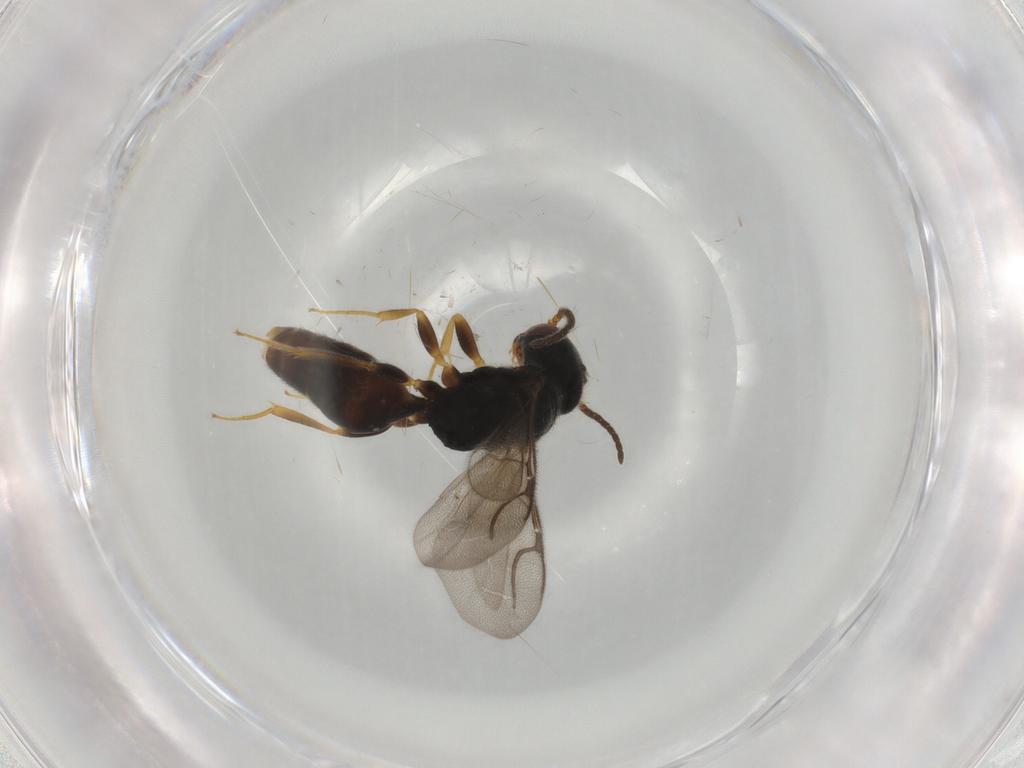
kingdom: Animalia
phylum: Arthropoda
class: Insecta
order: Hymenoptera
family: Bethylidae
